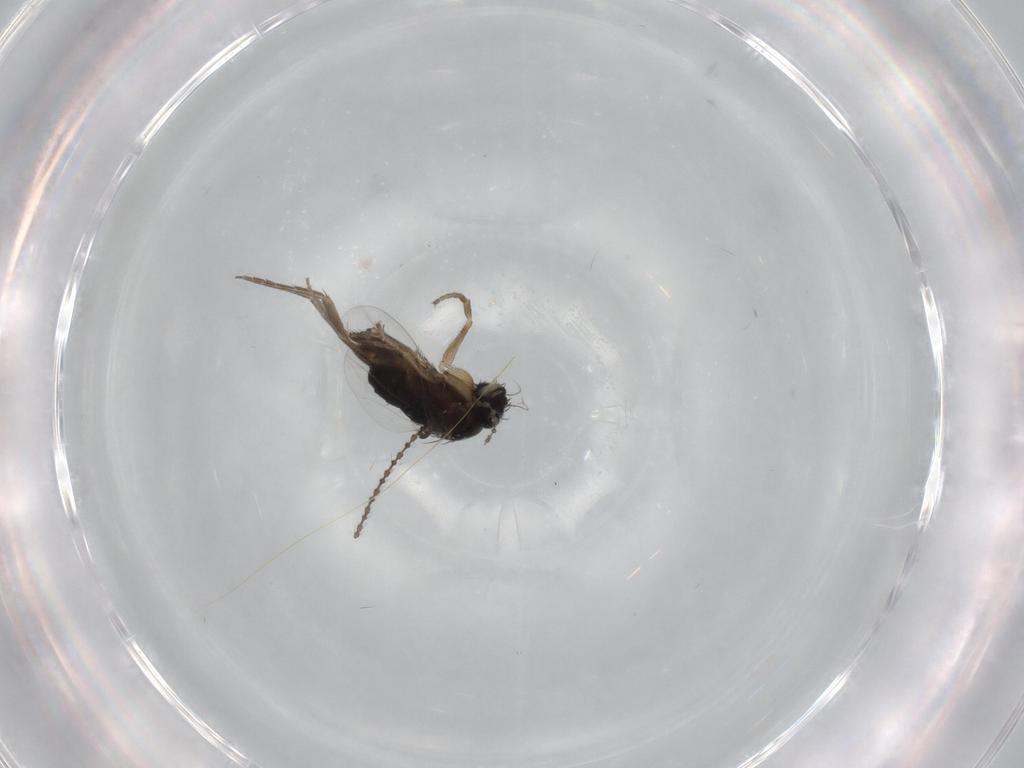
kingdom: Animalia
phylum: Arthropoda
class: Insecta
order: Diptera
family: Phoridae
